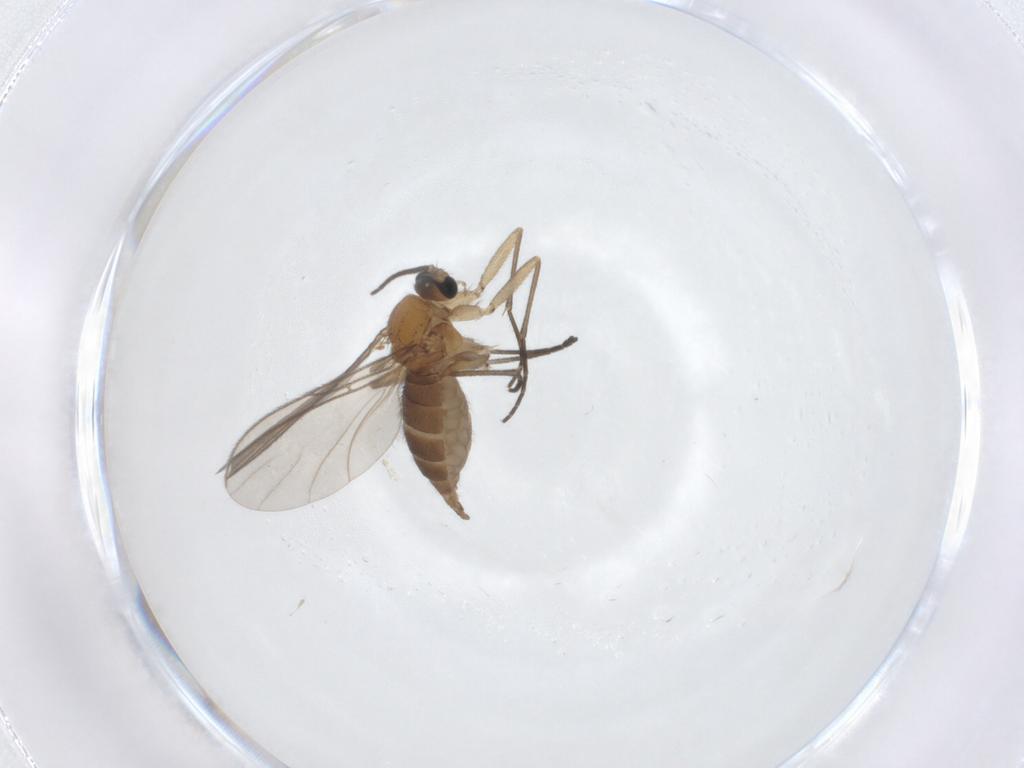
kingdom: Animalia
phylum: Arthropoda
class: Insecta
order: Diptera
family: Sciaridae
